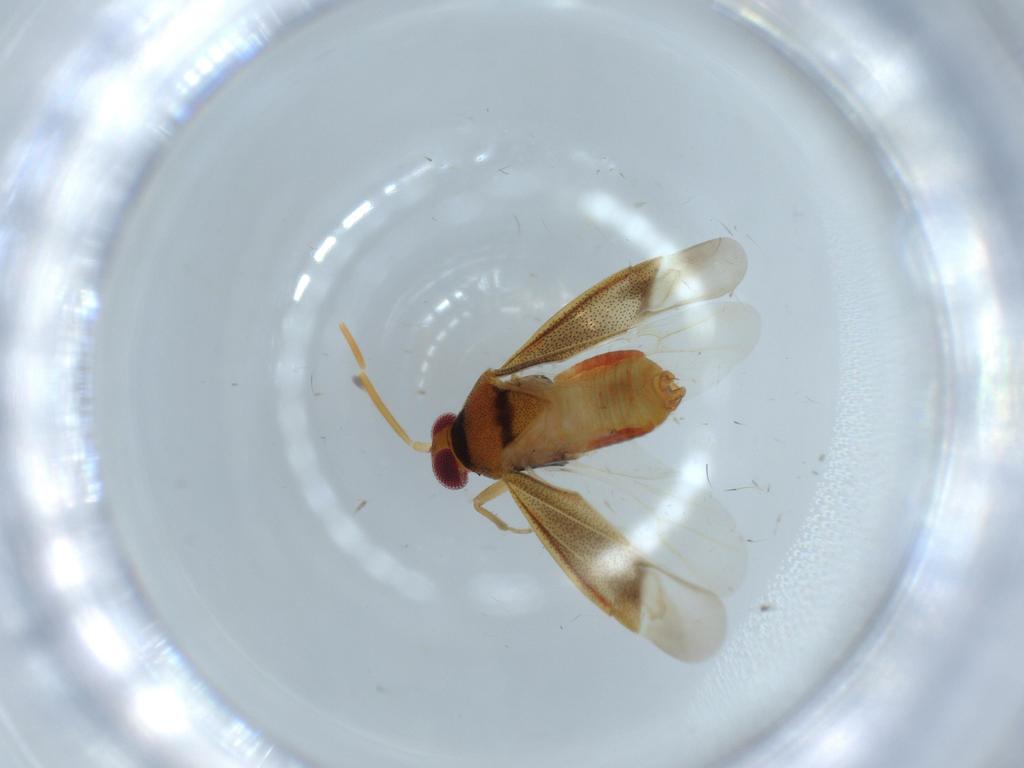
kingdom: Animalia
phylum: Arthropoda
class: Insecta
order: Hemiptera
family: Miridae
